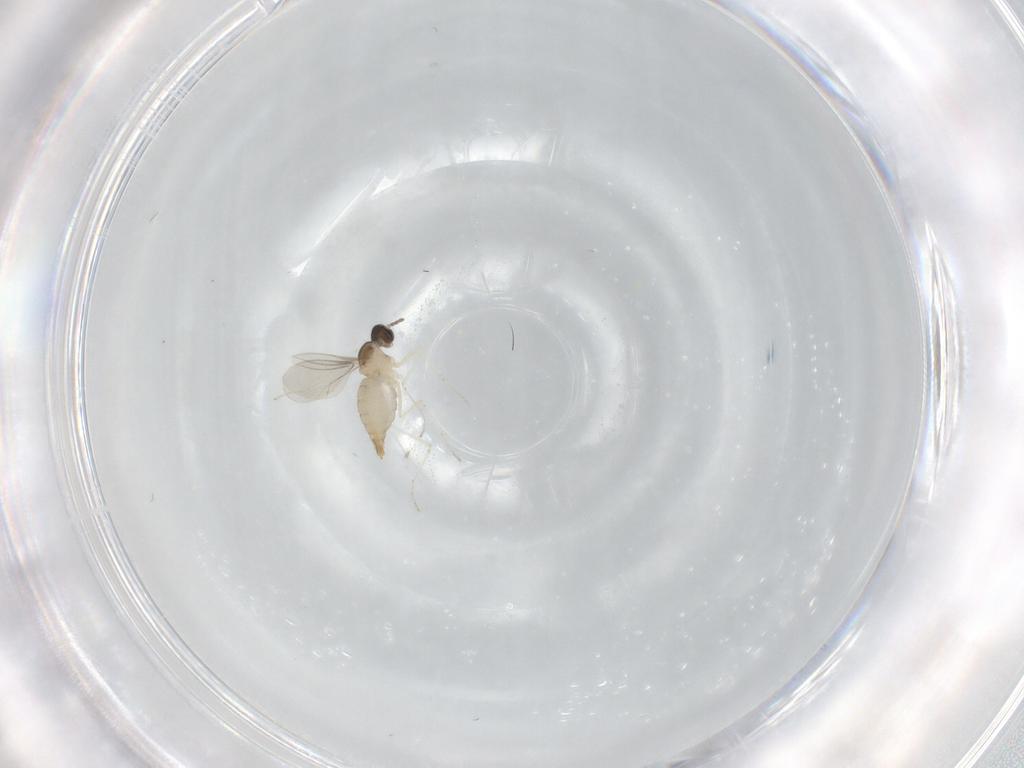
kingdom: Animalia
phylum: Arthropoda
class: Insecta
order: Diptera
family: Cecidomyiidae
